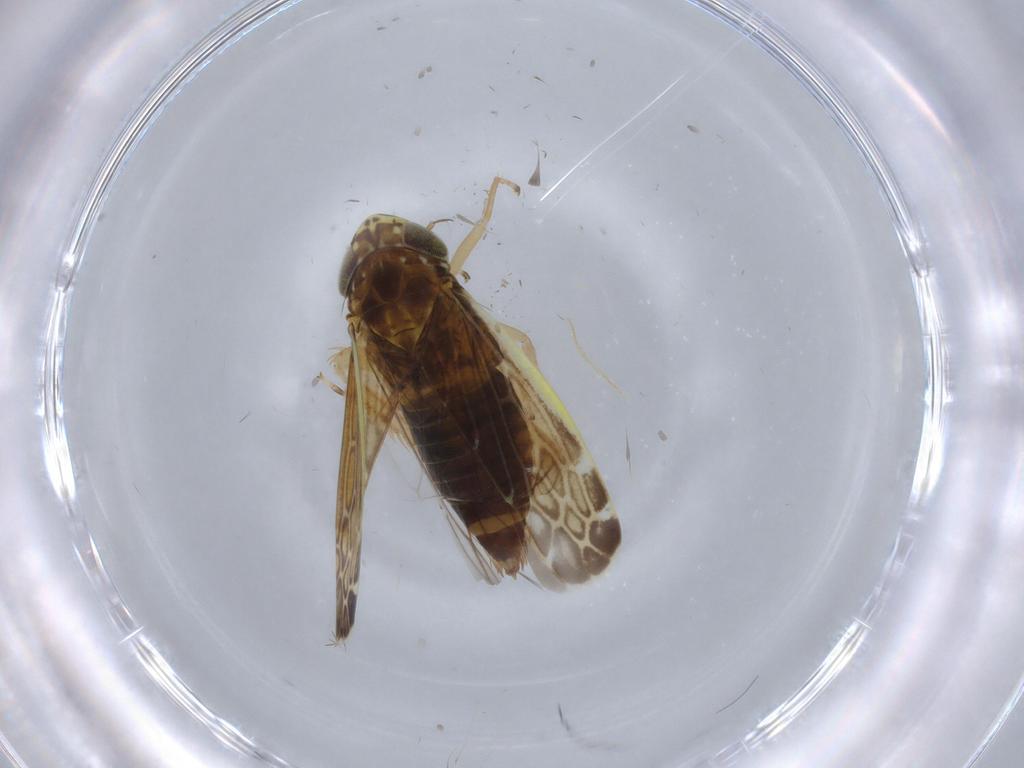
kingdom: Animalia
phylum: Arthropoda
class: Insecta
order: Hemiptera
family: Cicadellidae
